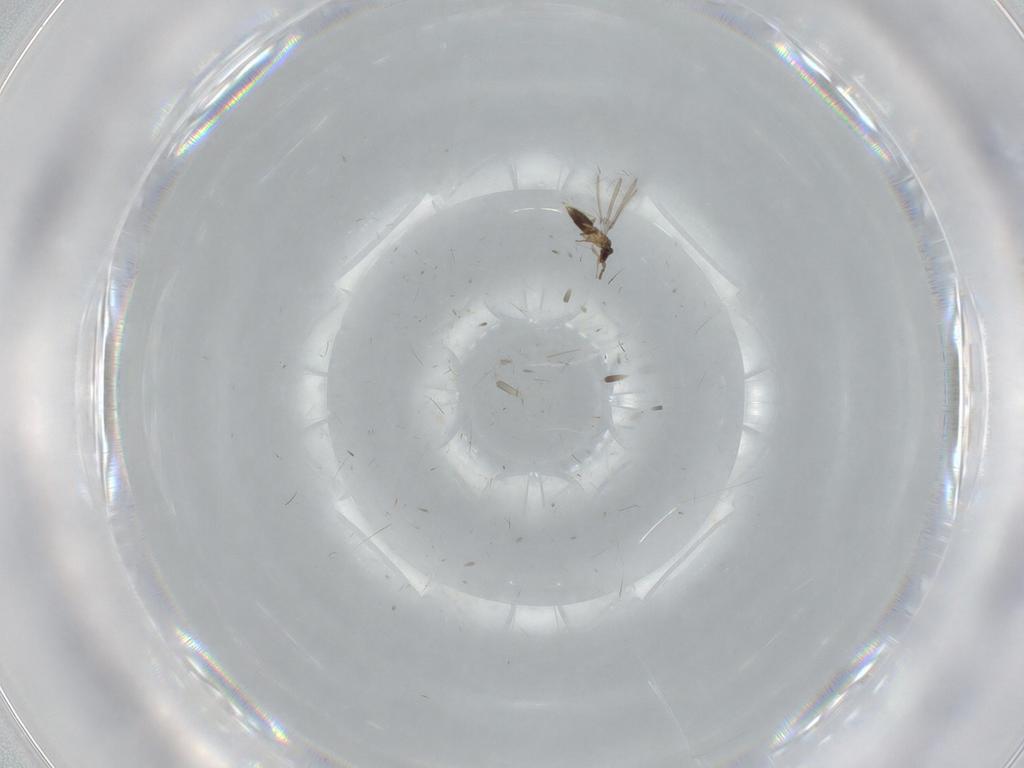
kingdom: Animalia
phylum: Arthropoda
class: Insecta
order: Hymenoptera
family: Mymaridae
